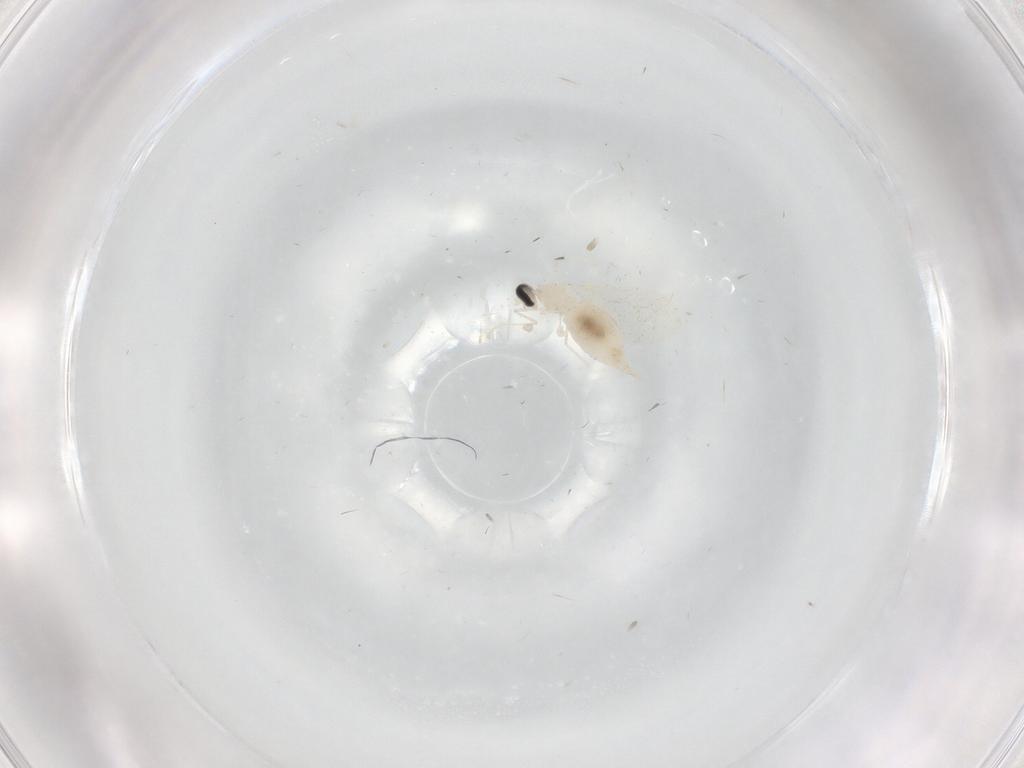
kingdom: Animalia
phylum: Arthropoda
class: Insecta
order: Diptera
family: Cecidomyiidae
